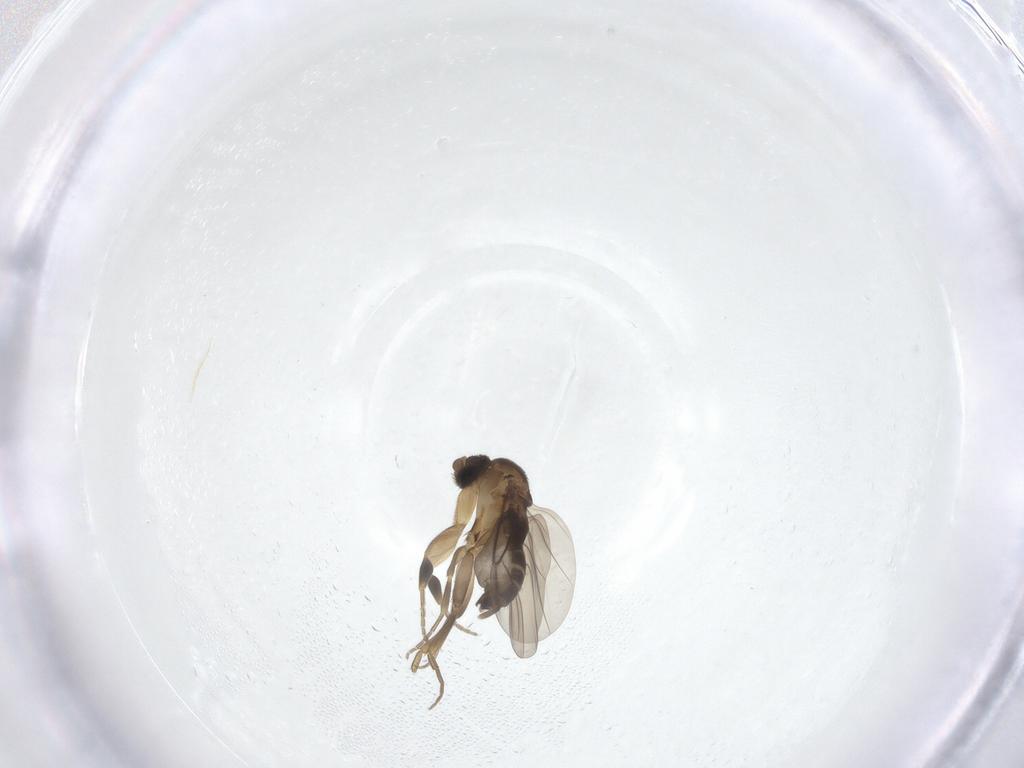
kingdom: Animalia
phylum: Arthropoda
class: Insecta
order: Diptera
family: Phoridae
